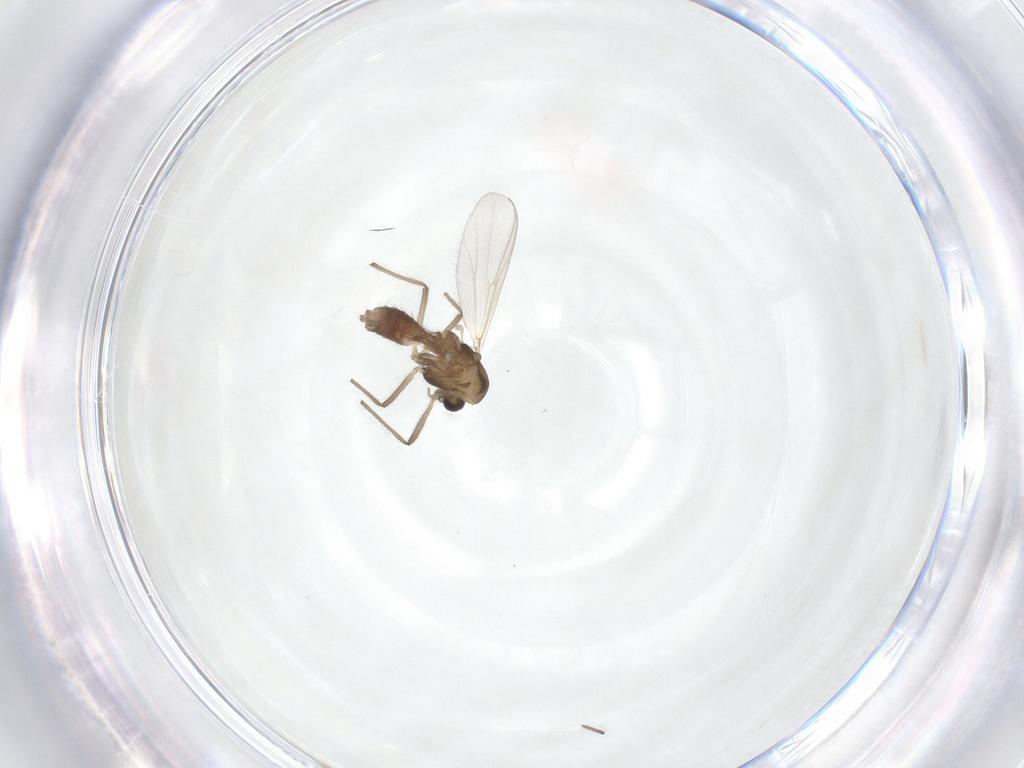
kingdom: Animalia
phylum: Arthropoda
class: Insecta
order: Diptera
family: Chironomidae
